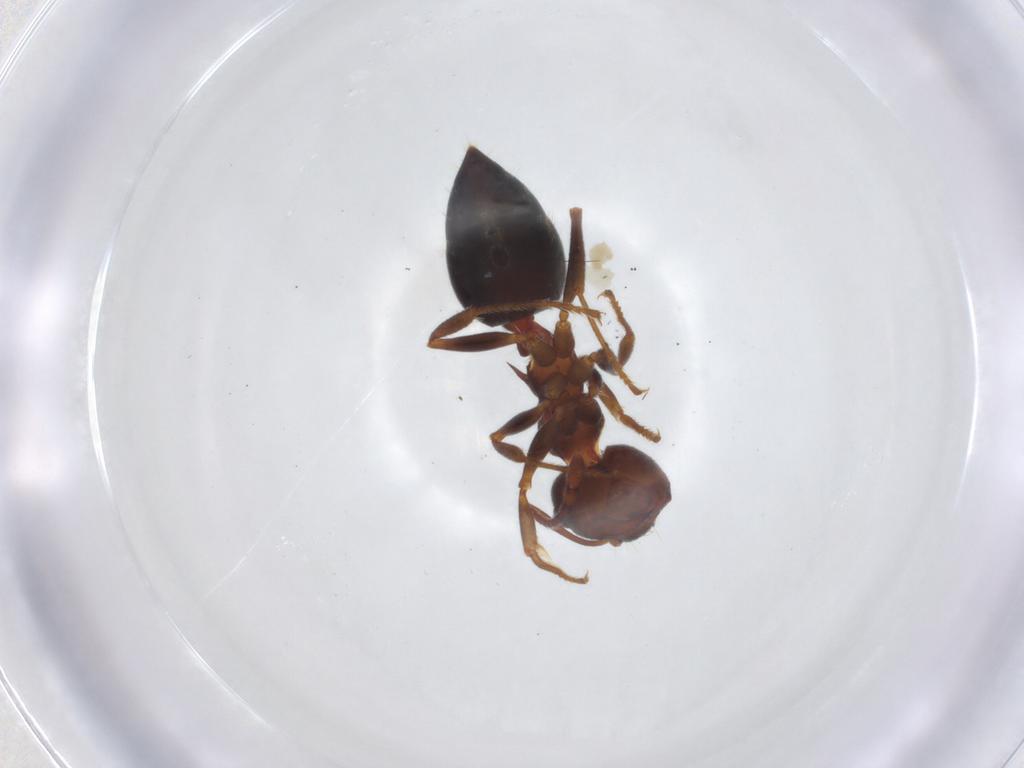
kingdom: Animalia
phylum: Arthropoda
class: Insecta
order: Hymenoptera
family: Formicidae
